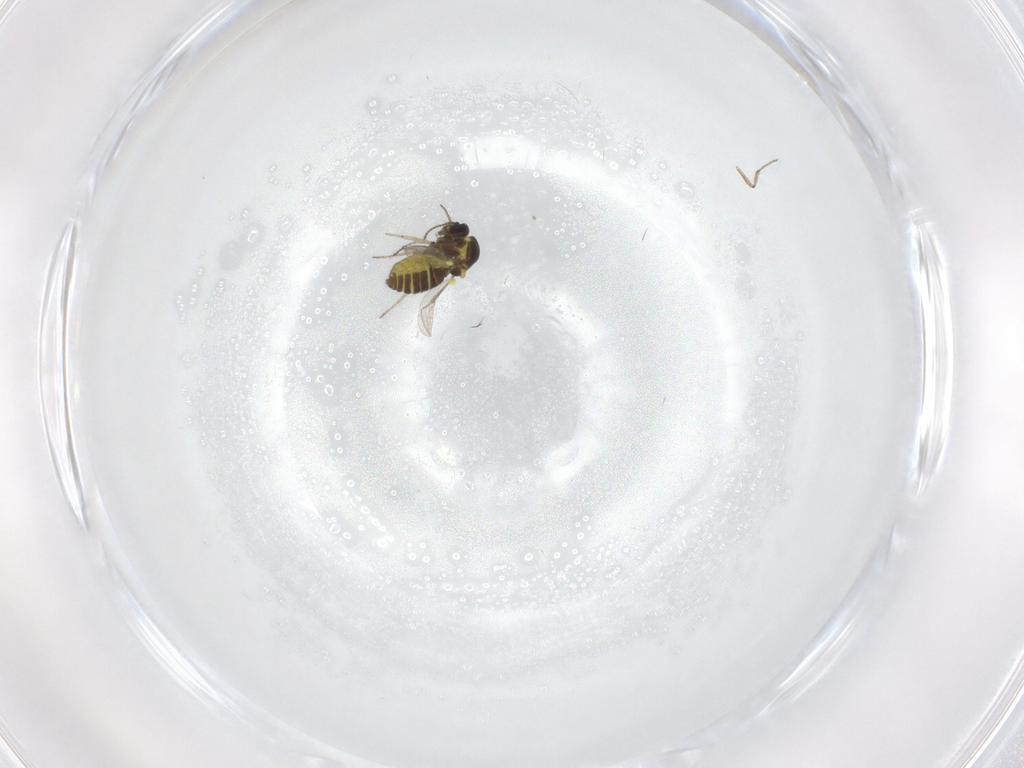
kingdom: Animalia
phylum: Arthropoda
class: Insecta
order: Diptera
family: Ceratopogonidae
